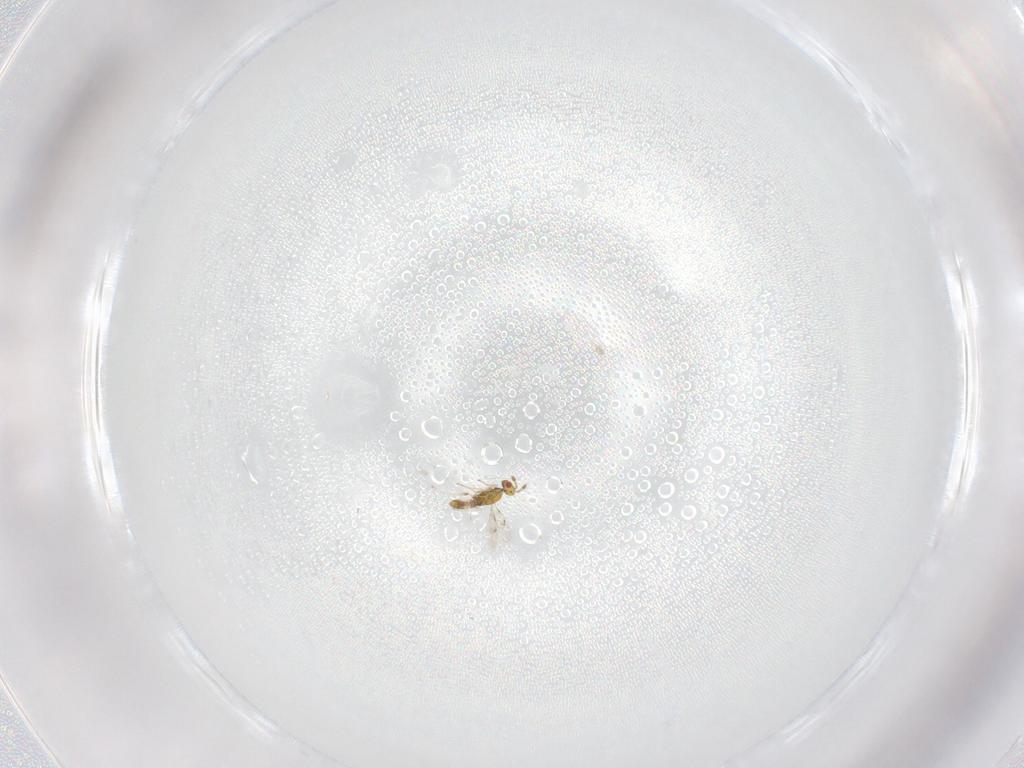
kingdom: Animalia
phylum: Arthropoda
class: Insecta
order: Hymenoptera
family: Eulophidae
